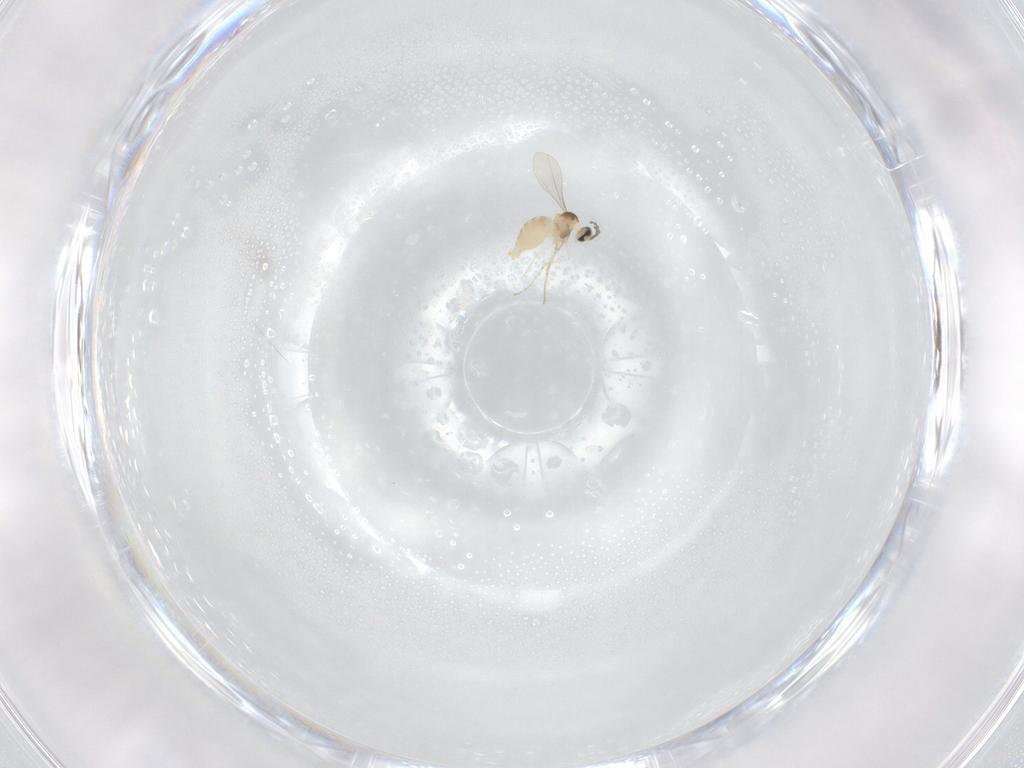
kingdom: Animalia
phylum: Arthropoda
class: Insecta
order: Diptera
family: Cecidomyiidae
